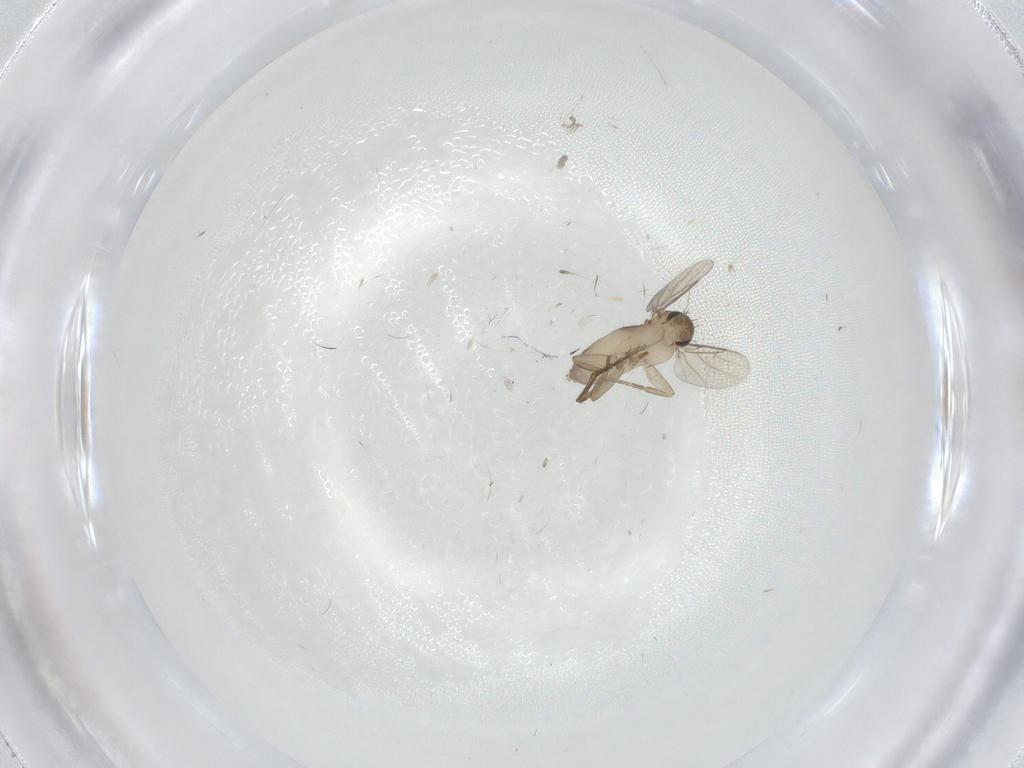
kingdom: Animalia
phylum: Arthropoda
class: Insecta
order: Diptera
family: Phoridae
